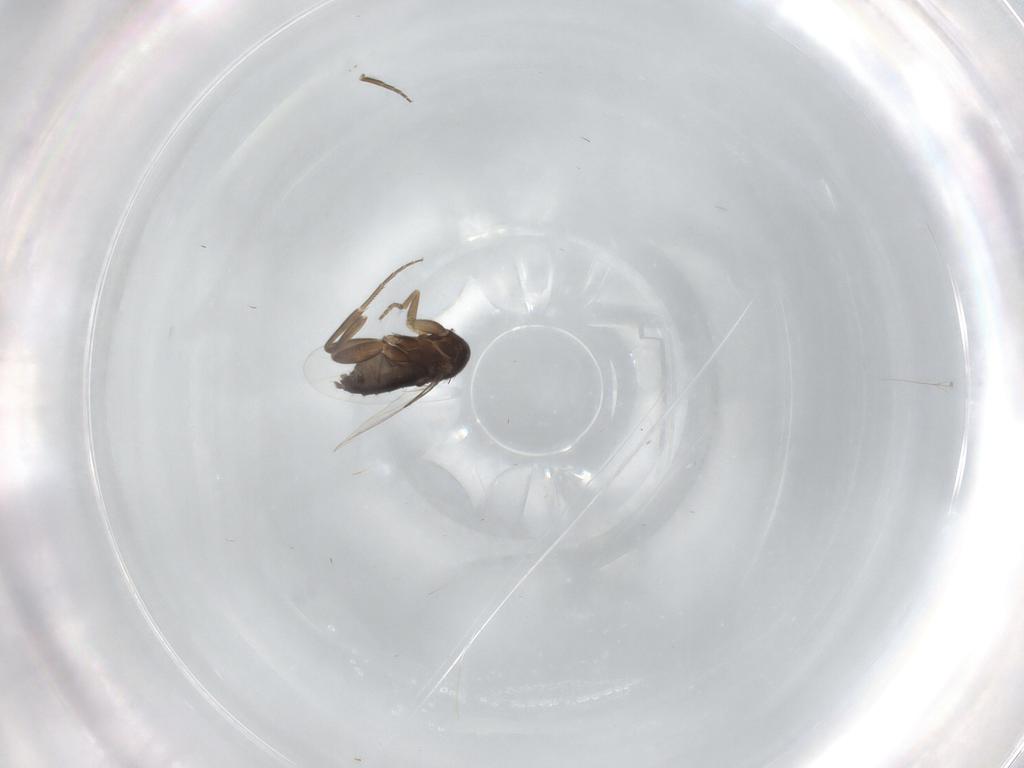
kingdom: Animalia
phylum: Arthropoda
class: Insecta
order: Diptera
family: Phoridae
